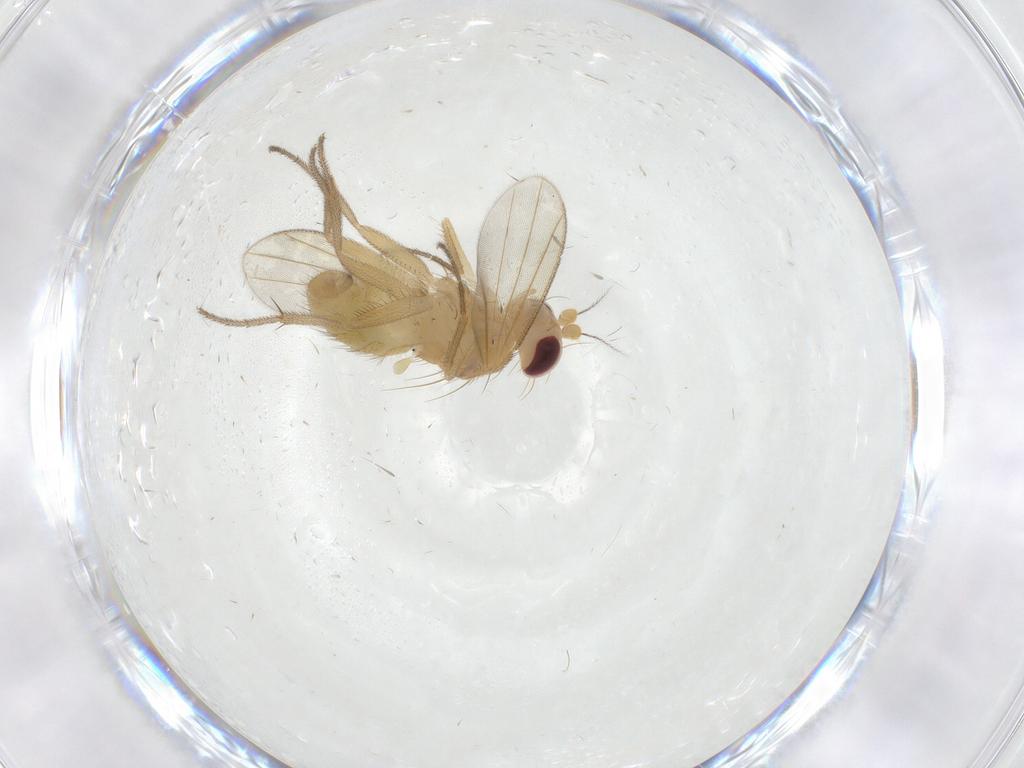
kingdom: Animalia
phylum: Arthropoda
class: Insecta
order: Diptera
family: Clusiidae
